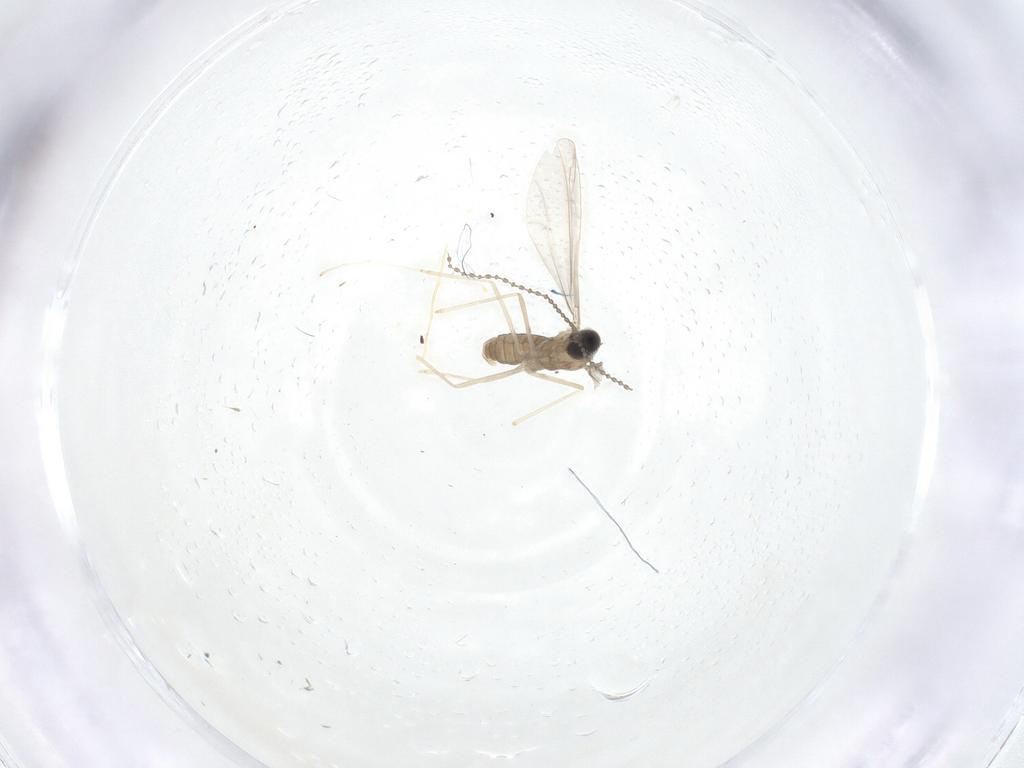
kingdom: Animalia
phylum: Arthropoda
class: Insecta
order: Diptera
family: Cecidomyiidae
